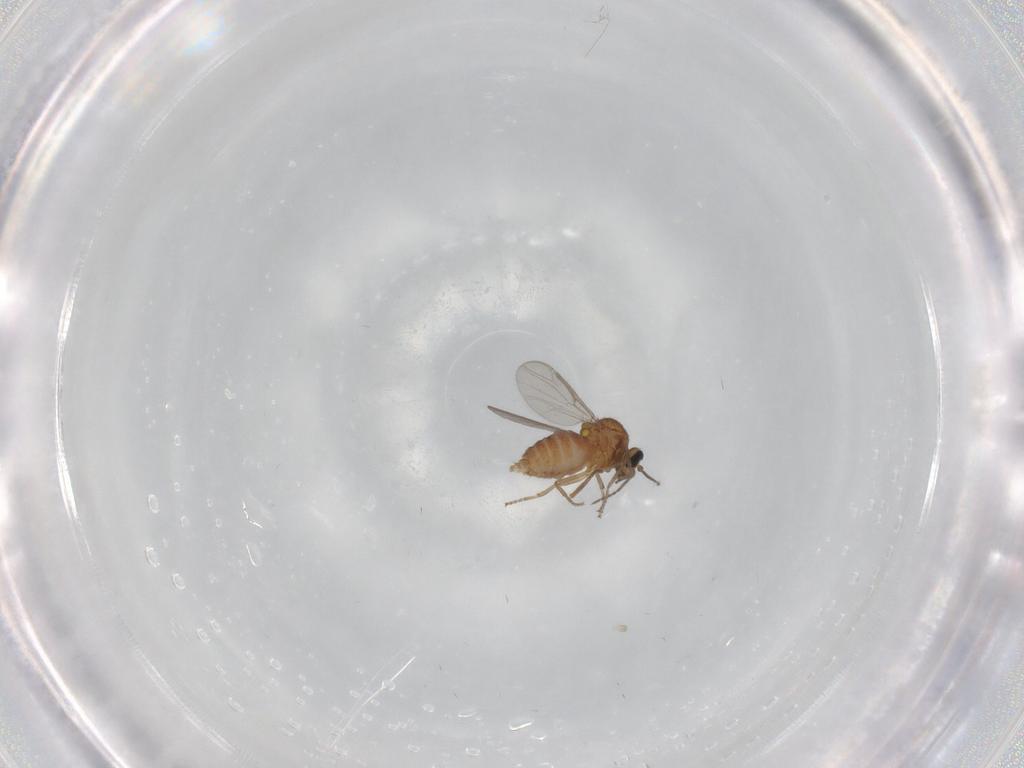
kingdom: Animalia
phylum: Arthropoda
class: Insecta
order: Diptera
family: Ceratopogonidae
